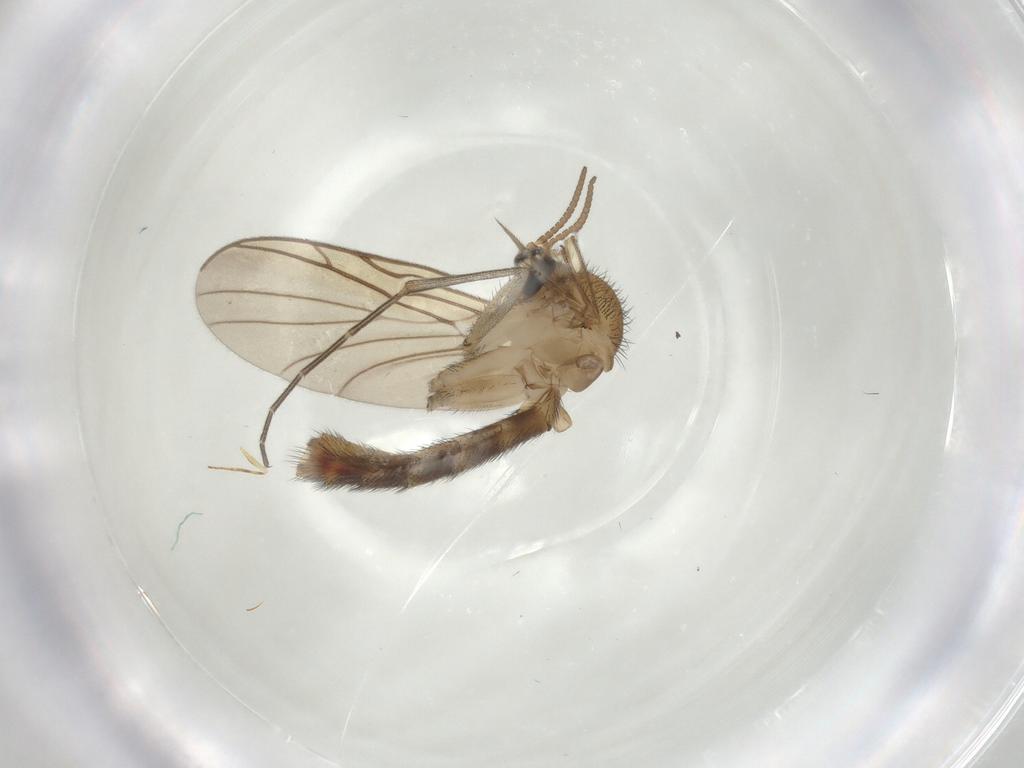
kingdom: Animalia
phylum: Arthropoda
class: Insecta
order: Diptera
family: Keroplatidae
